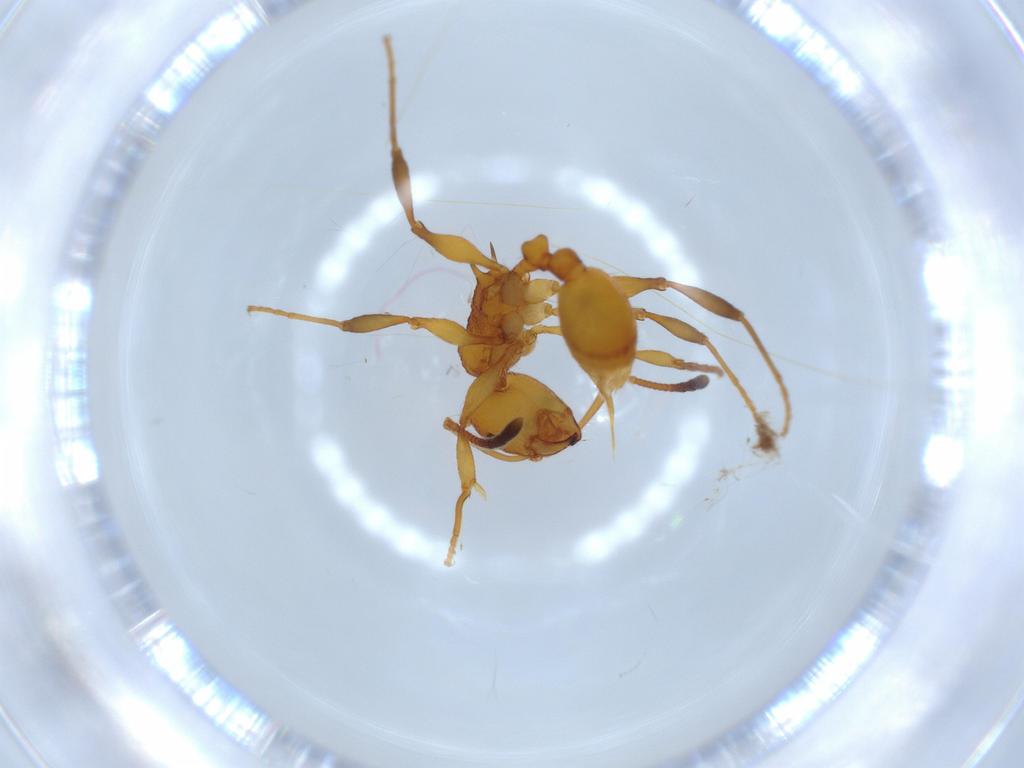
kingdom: Animalia
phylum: Arthropoda
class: Insecta
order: Hymenoptera
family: Formicidae
